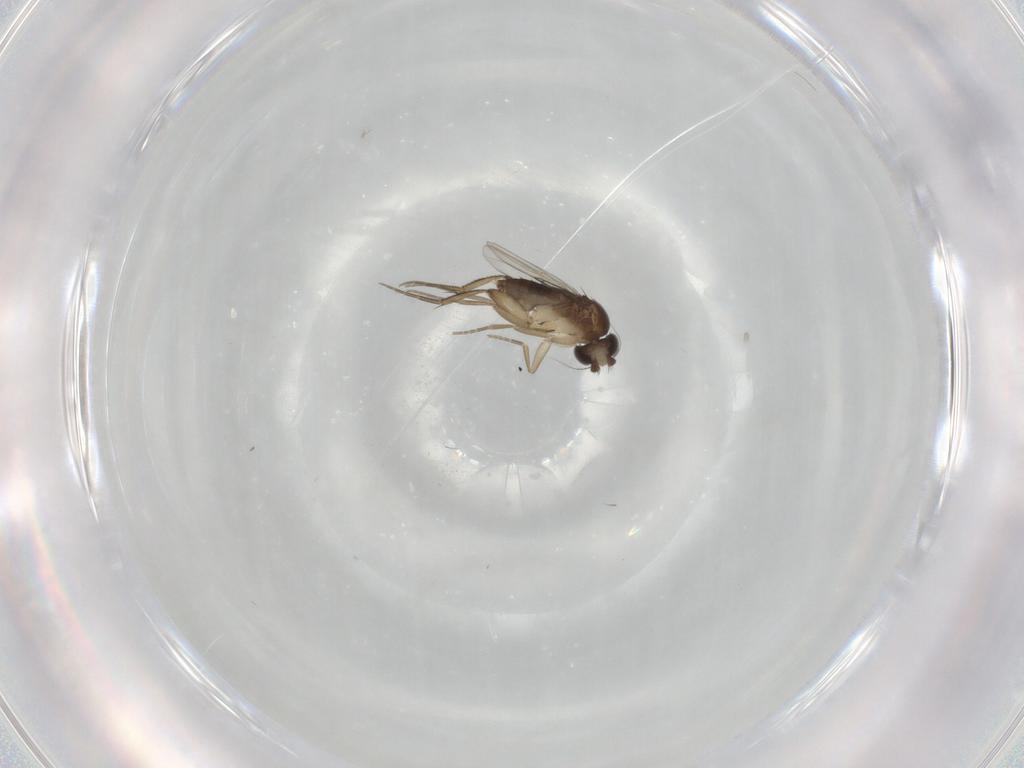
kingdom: Animalia
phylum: Arthropoda
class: Insecta
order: Diptera
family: Phoridae
